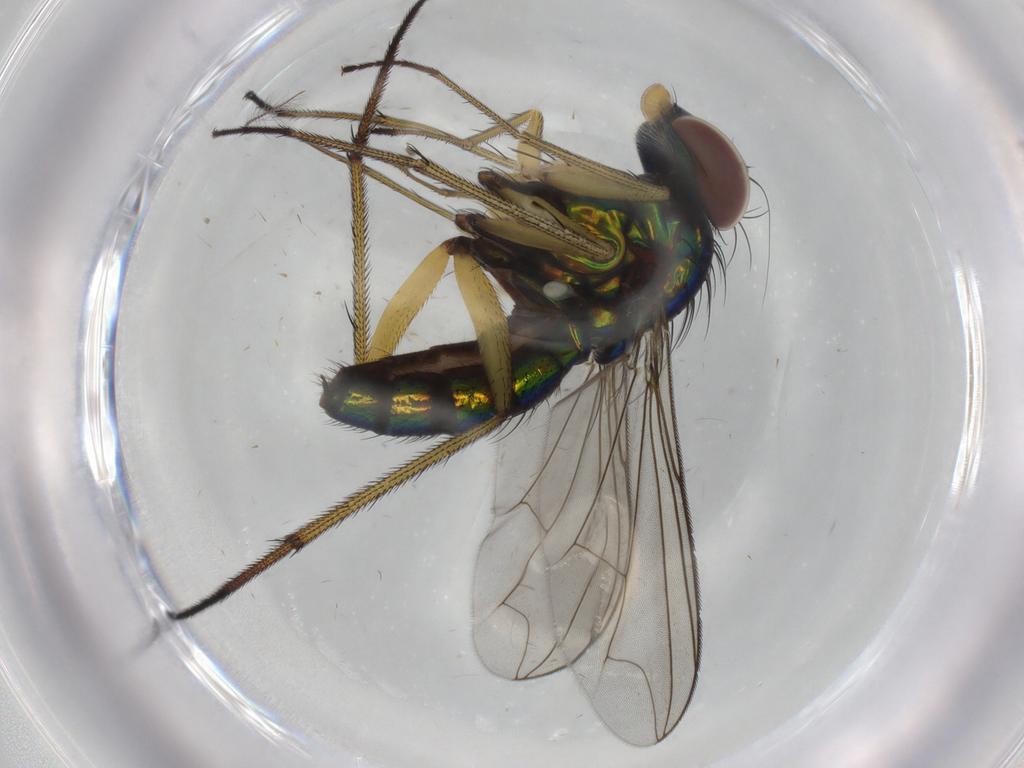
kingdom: Animalia
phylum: Arthropoda
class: Insecta
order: Diptera
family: Dolichopodidae
